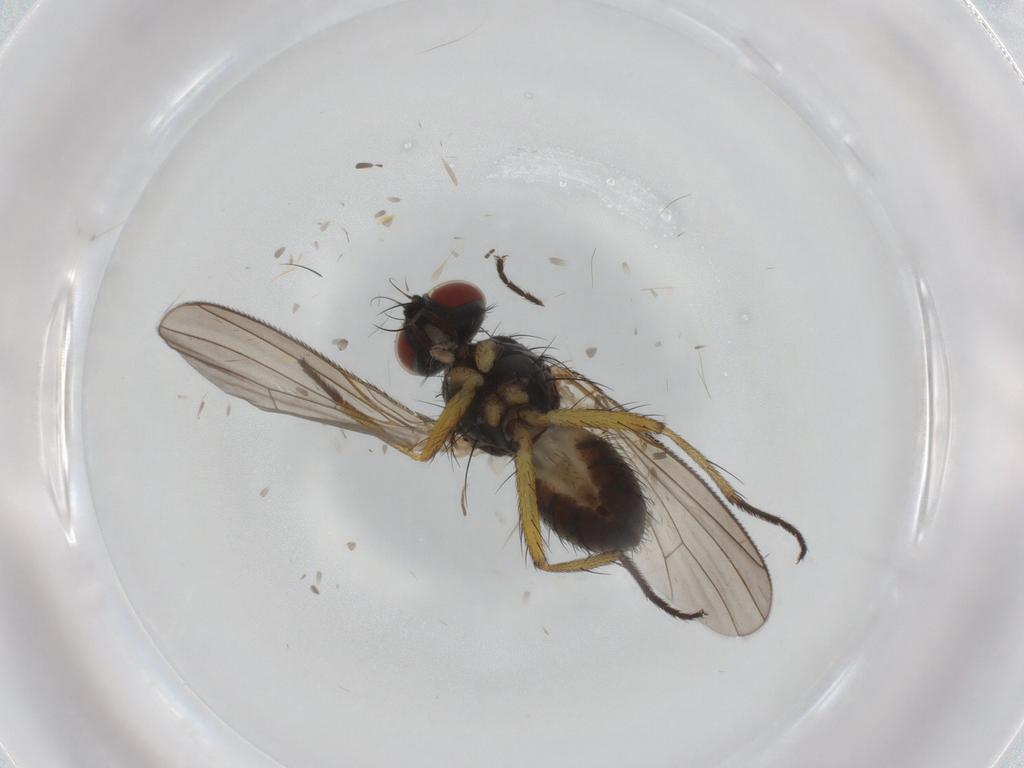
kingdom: Animalia
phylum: Arthropoda
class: Insecta
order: Diptera
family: Muscidae
